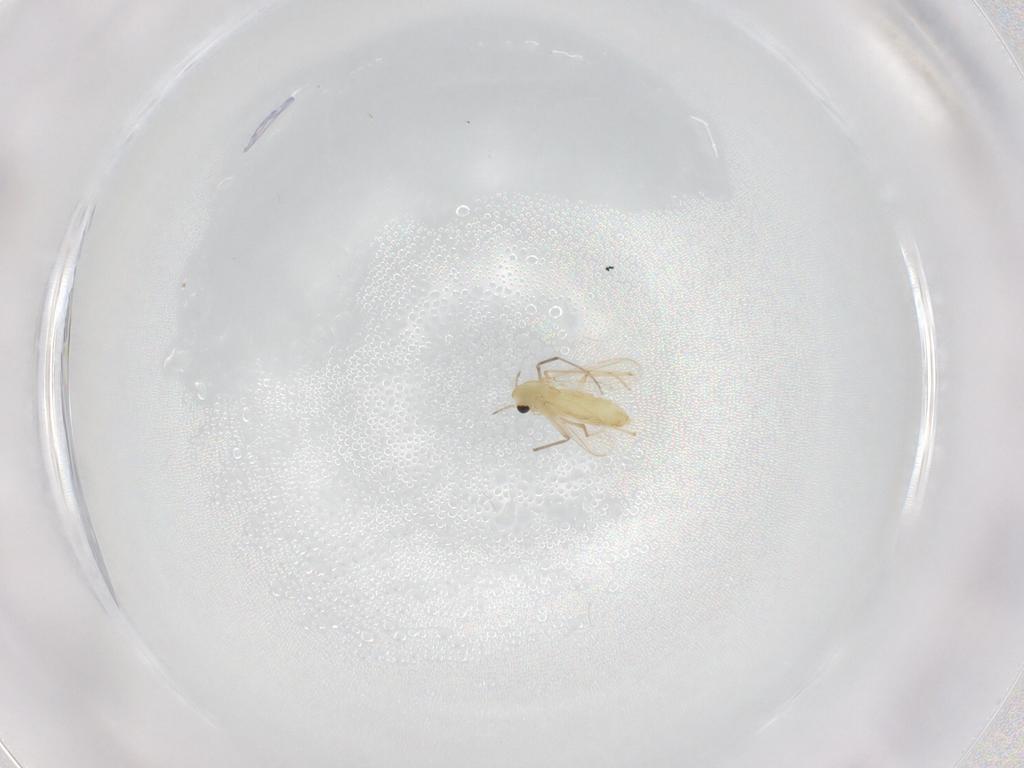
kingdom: Animalia
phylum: Arthropoda
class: Insecta
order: Diptera
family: Chironomidae
